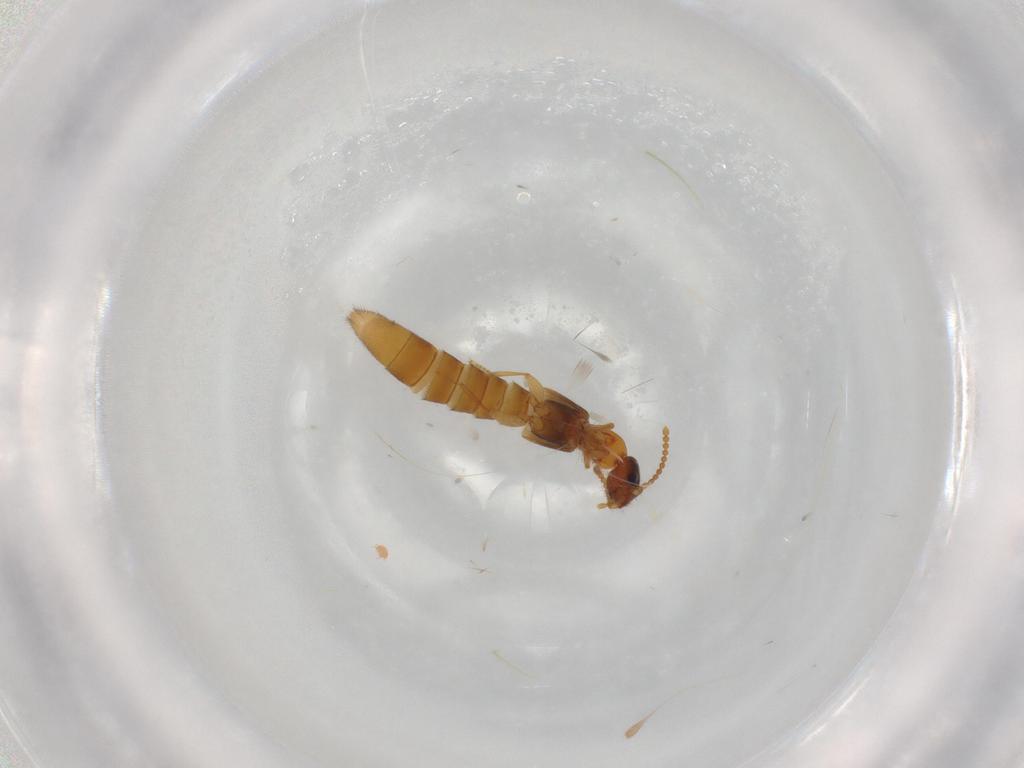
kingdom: Animalia
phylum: Arthropoda
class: Insecta
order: Coleoptera
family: Staphylinidae
